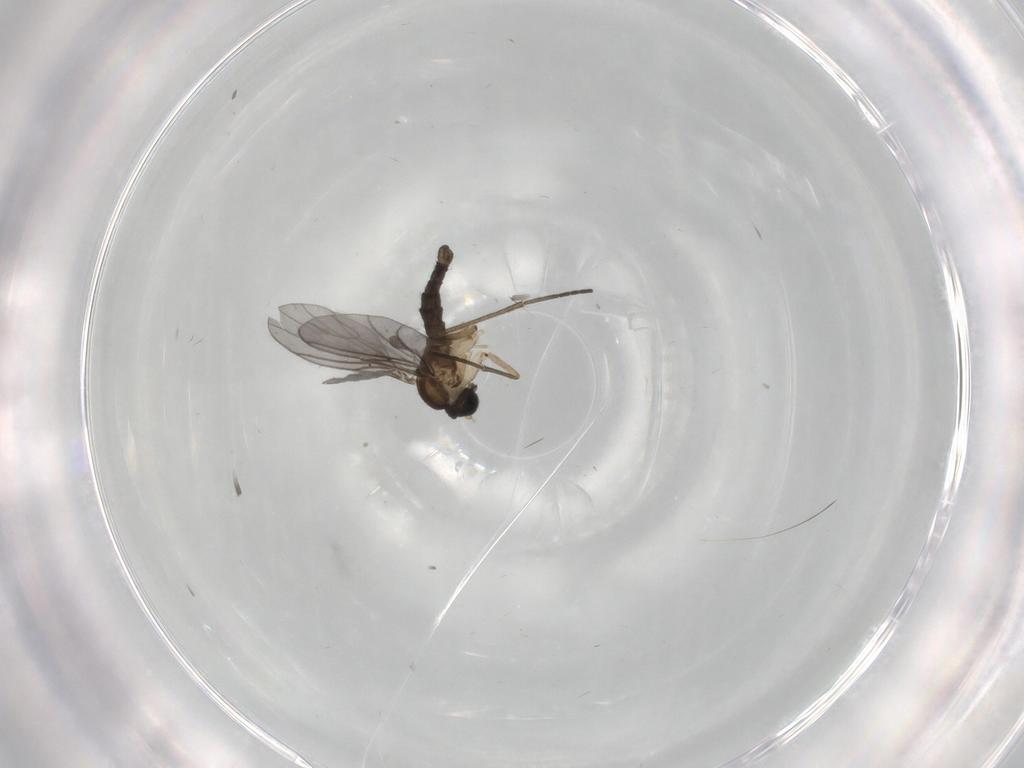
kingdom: Animalia
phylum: Arthropoda
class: Insecta
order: Diptera
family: Sciaridae
